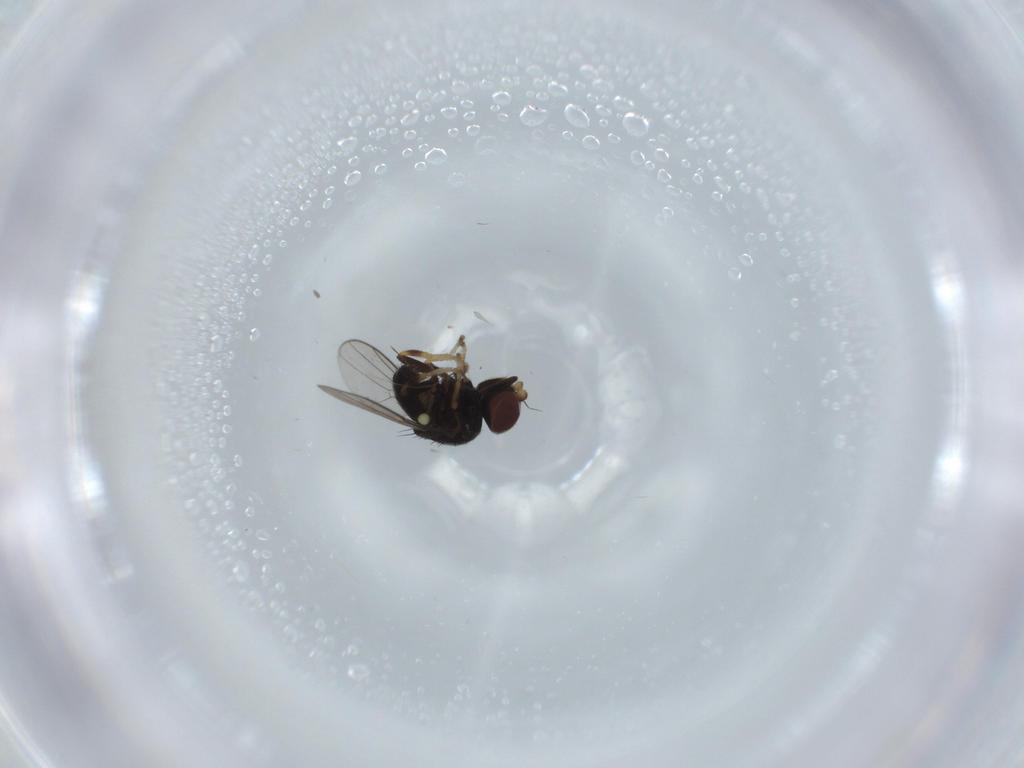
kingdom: Animalia
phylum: Arthropoda
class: Insecta
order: Diptera
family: Chloropidae
